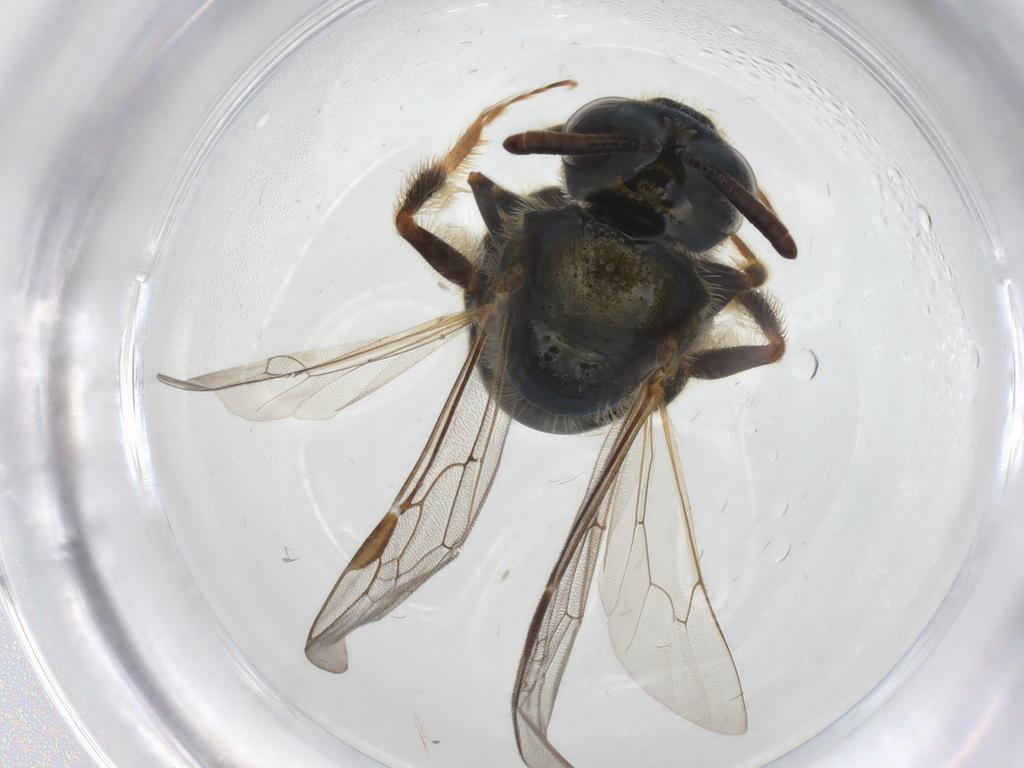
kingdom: Animalia
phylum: Arthropoda
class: Insecta
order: Hymenoptera
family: Halictidae
